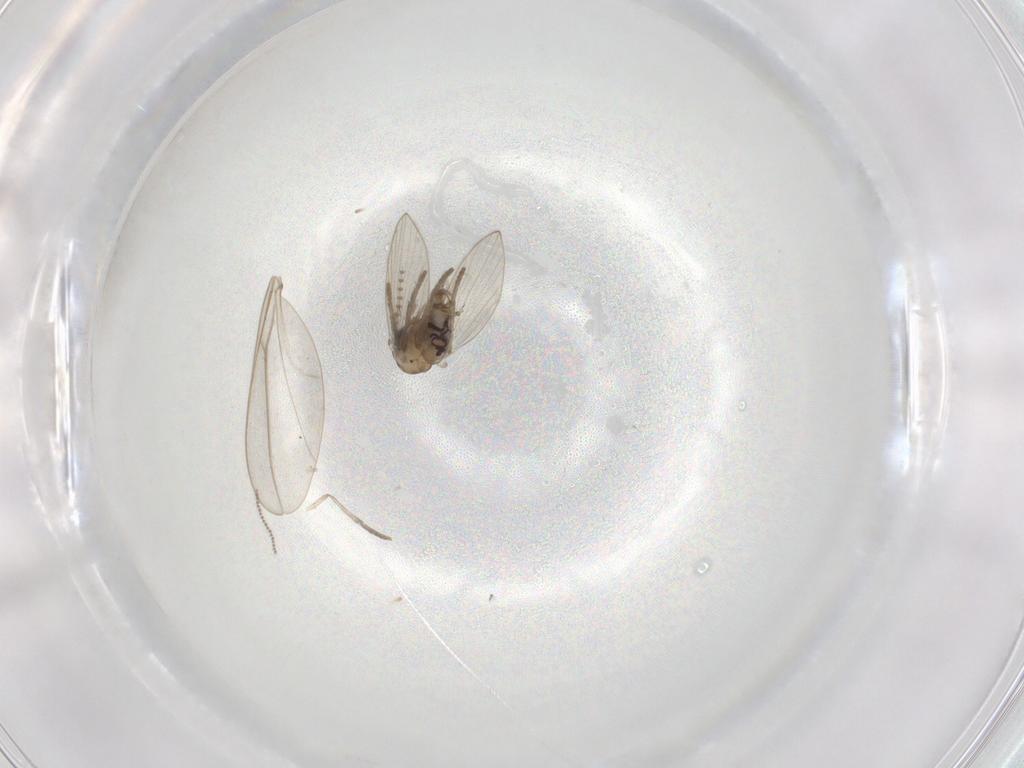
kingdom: Animalia
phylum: Arthropoda
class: Insecta
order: Diptera
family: Psychodidae
